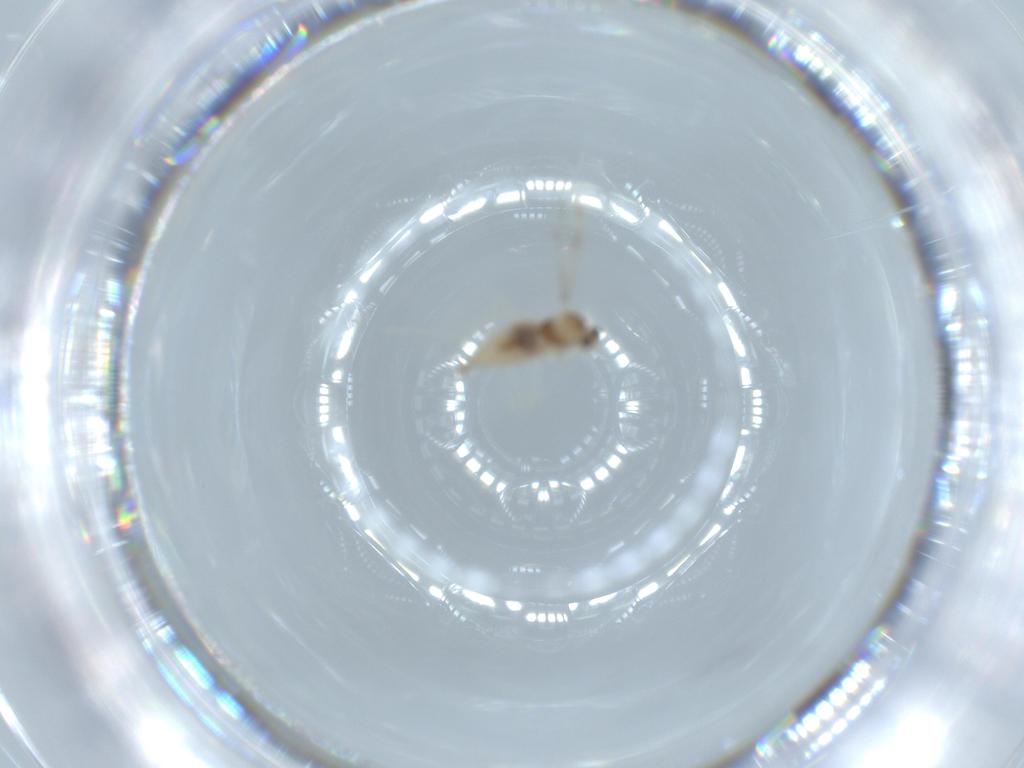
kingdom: Animalia
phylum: Arthropoda
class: Insecta
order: Diptera
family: Cecidomyiidae
